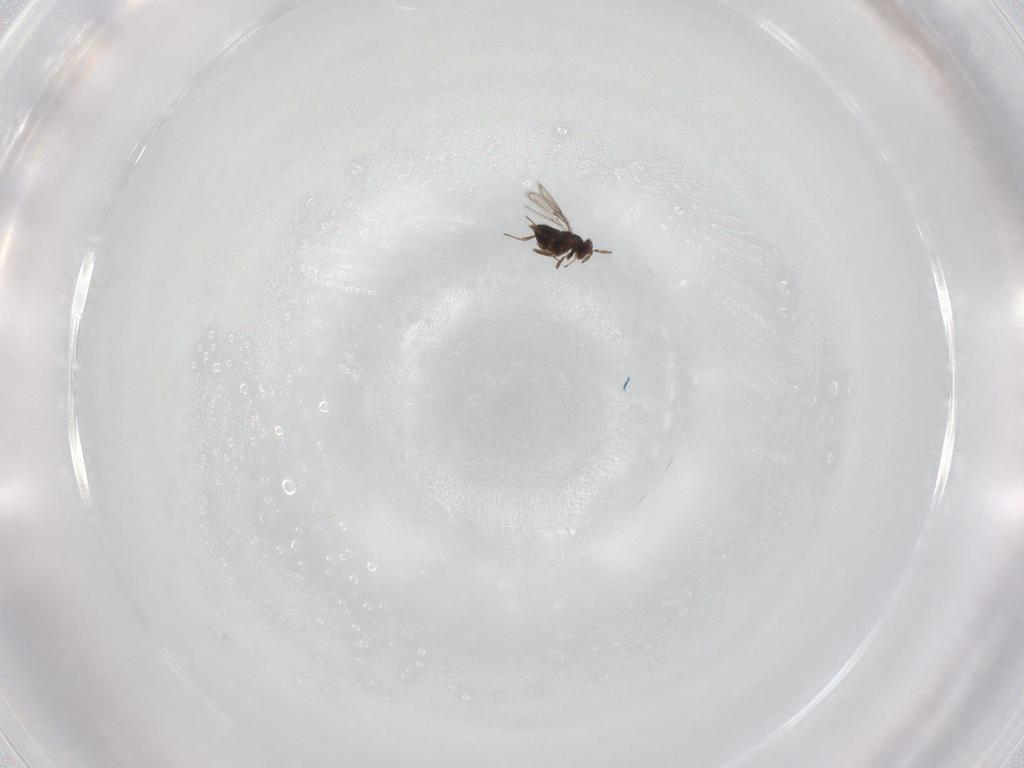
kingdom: Animalia
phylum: Arthropoda
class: Insecta
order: Hymenoptera
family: Trichogrammatidae
